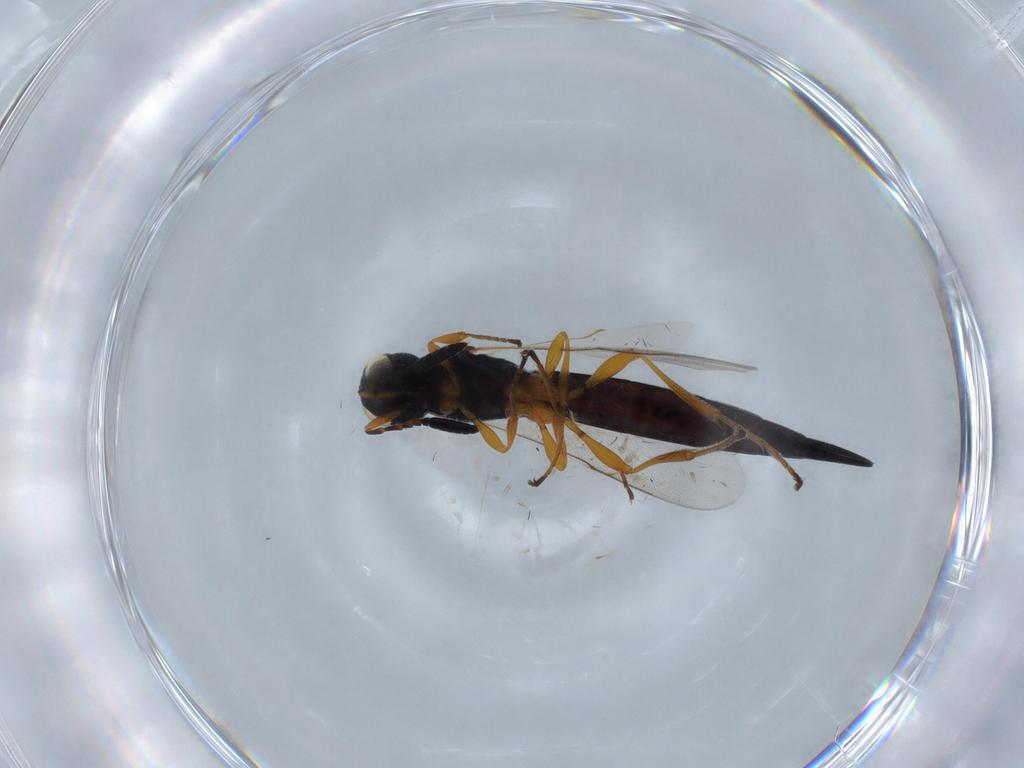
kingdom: Animalia
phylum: Arthropoda
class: Insecta
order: Hymenoptera
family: Scelionidae
